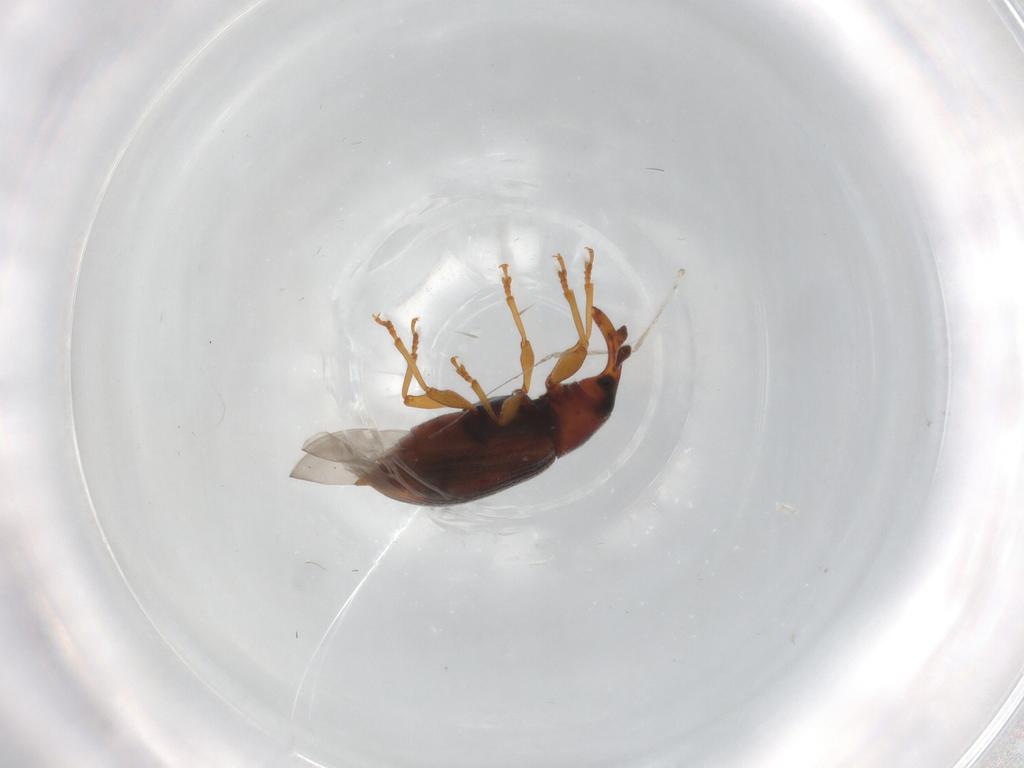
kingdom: Animalia
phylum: Arthropoda
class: Insecta
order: Coleoptera
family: Curculionidae
